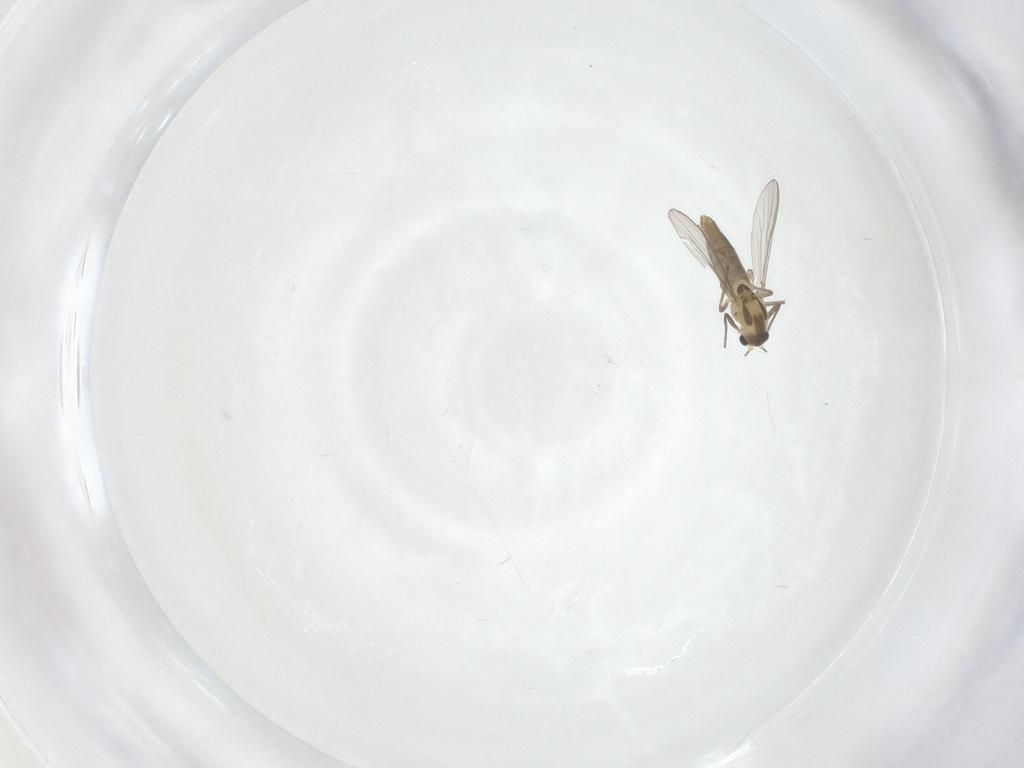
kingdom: Animalia
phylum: Arthropoda
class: Insecta
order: Diptera
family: Chironomidae
